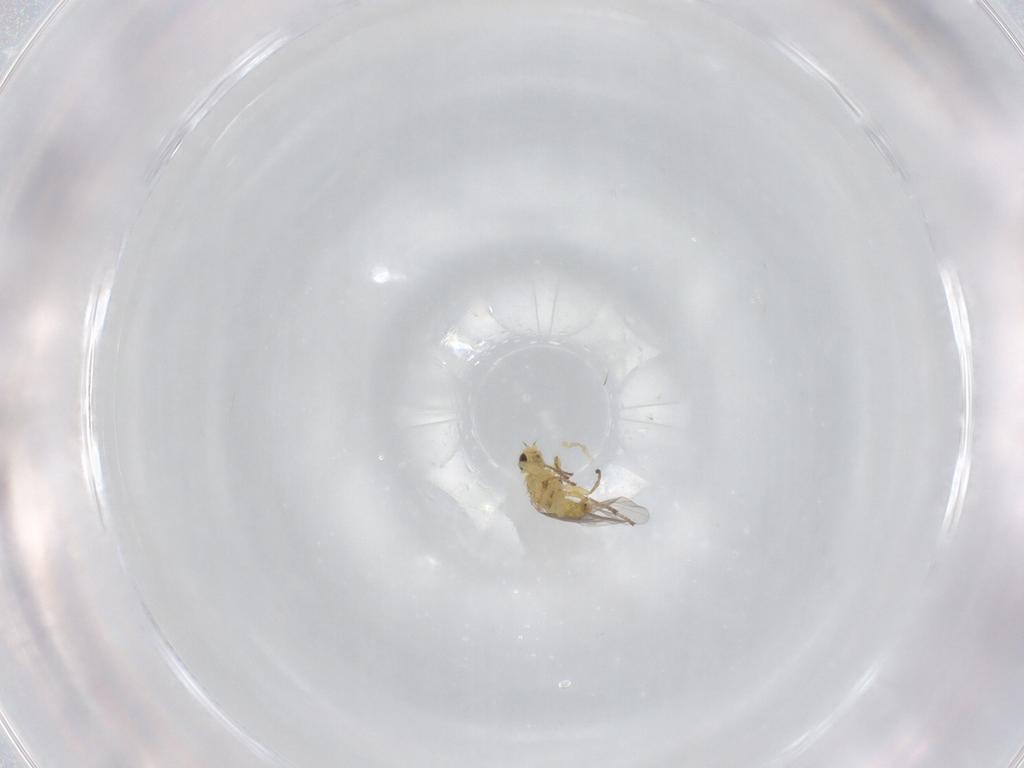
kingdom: Animalia
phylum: Arthropoda
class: Insecta
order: Diptera
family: Agromyzidae
